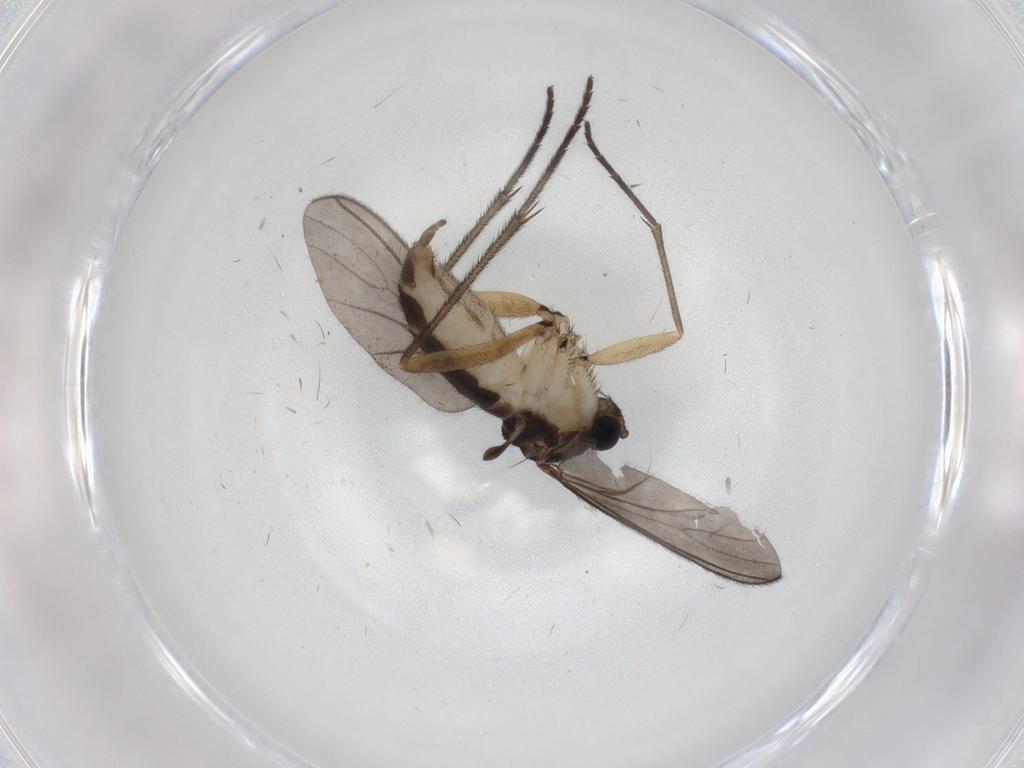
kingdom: Animalia
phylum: Arthropoda
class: Insecta
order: Diptera
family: Sciaridae
